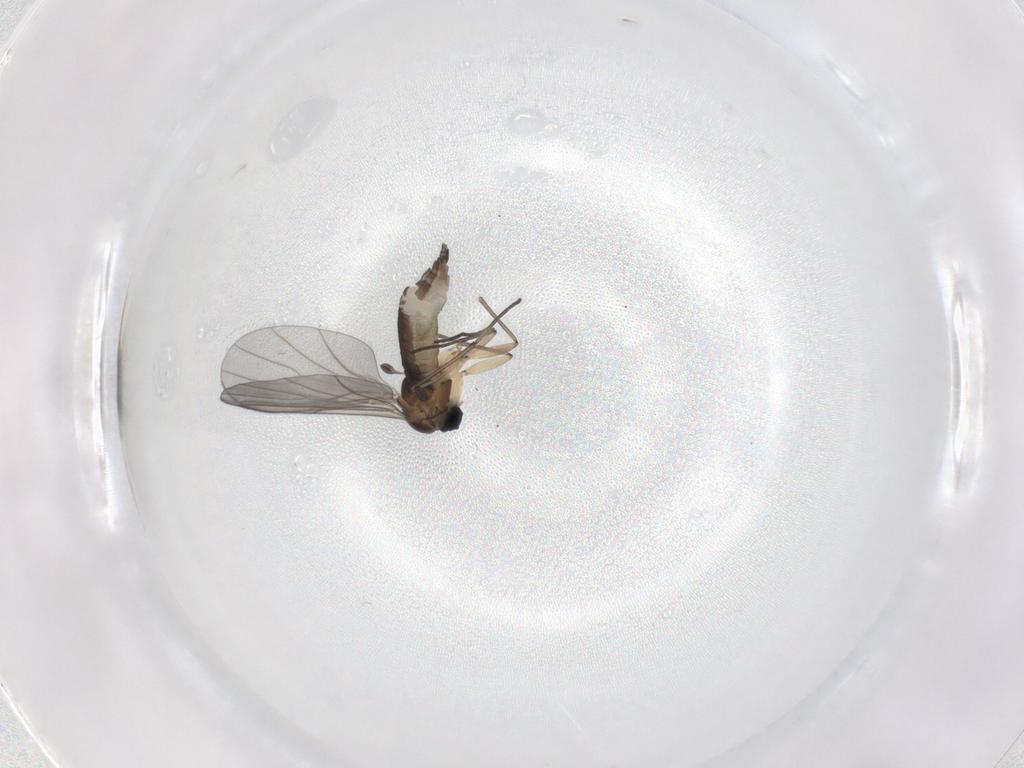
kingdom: Animalia
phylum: Arthropoda
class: Insecta
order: Diptera
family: Sciaridae
